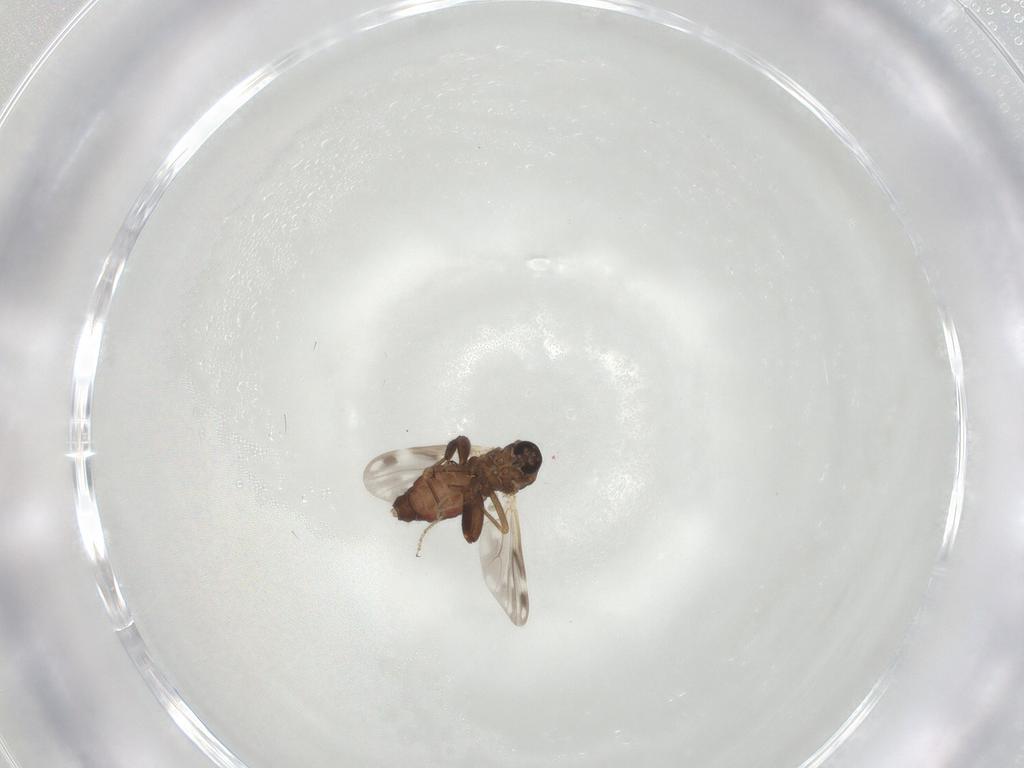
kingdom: Animalia
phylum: Arthropoda
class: Insecta
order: Diptera
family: Ceratopogonidae
